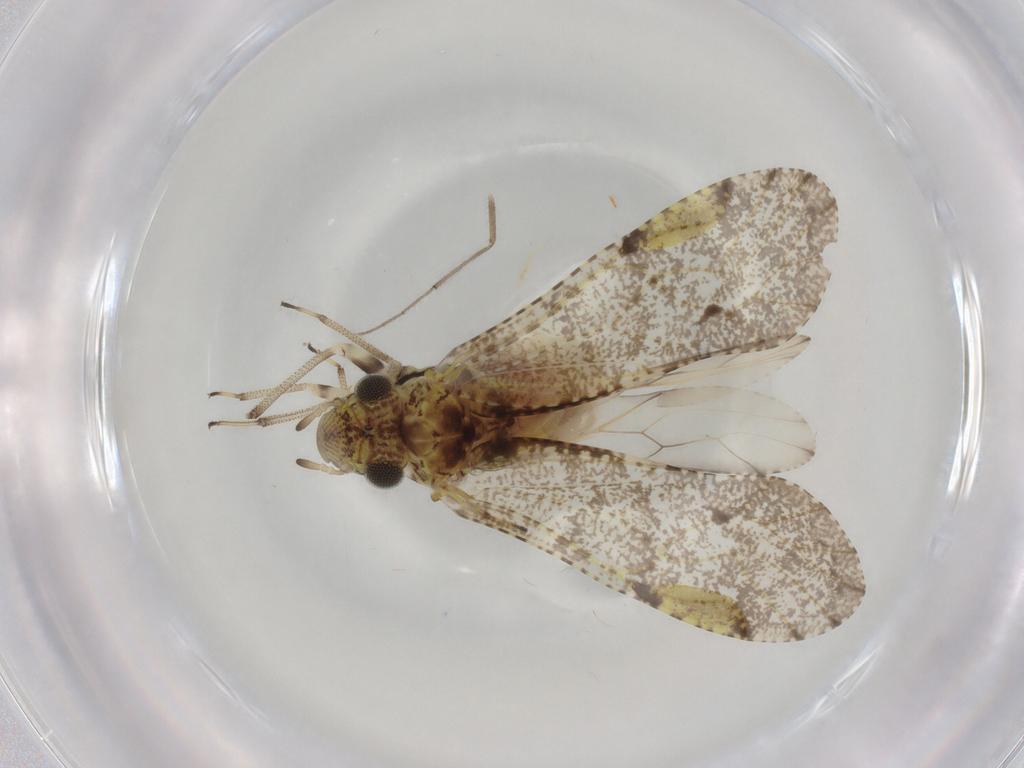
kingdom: Animalia
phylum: Arthropoda
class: Insecta
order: Psocodea
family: Myopsocidae
